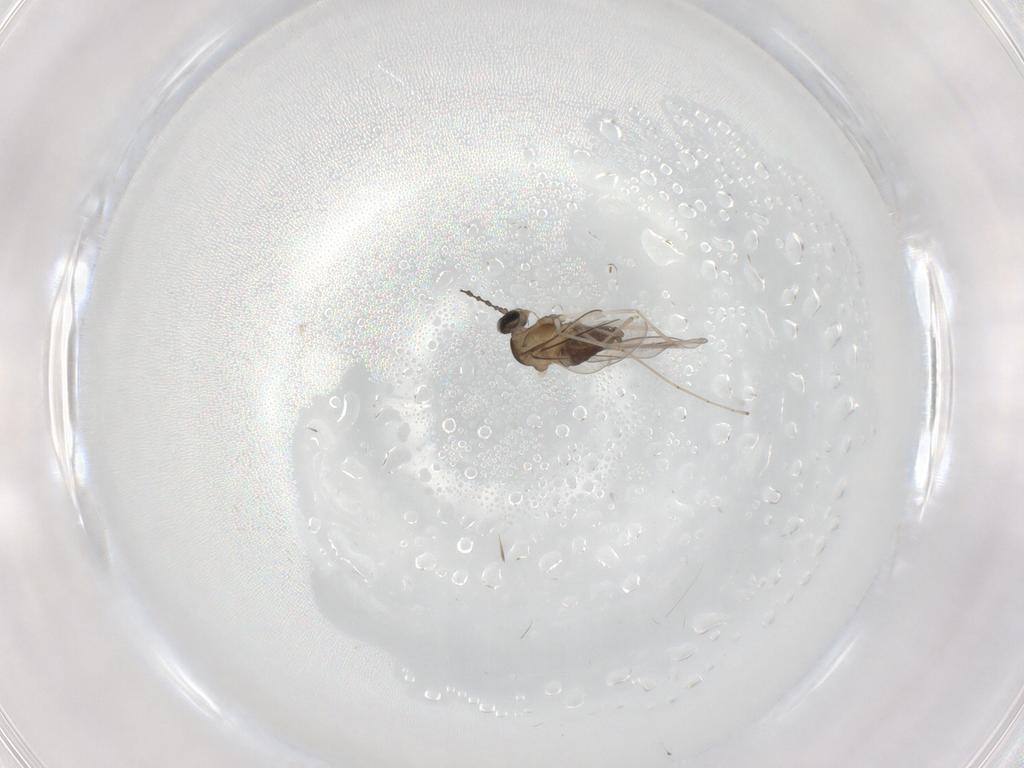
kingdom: Animalia
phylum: Arthropoda
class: Insecta
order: Diptera
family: Cecidomyiidae
